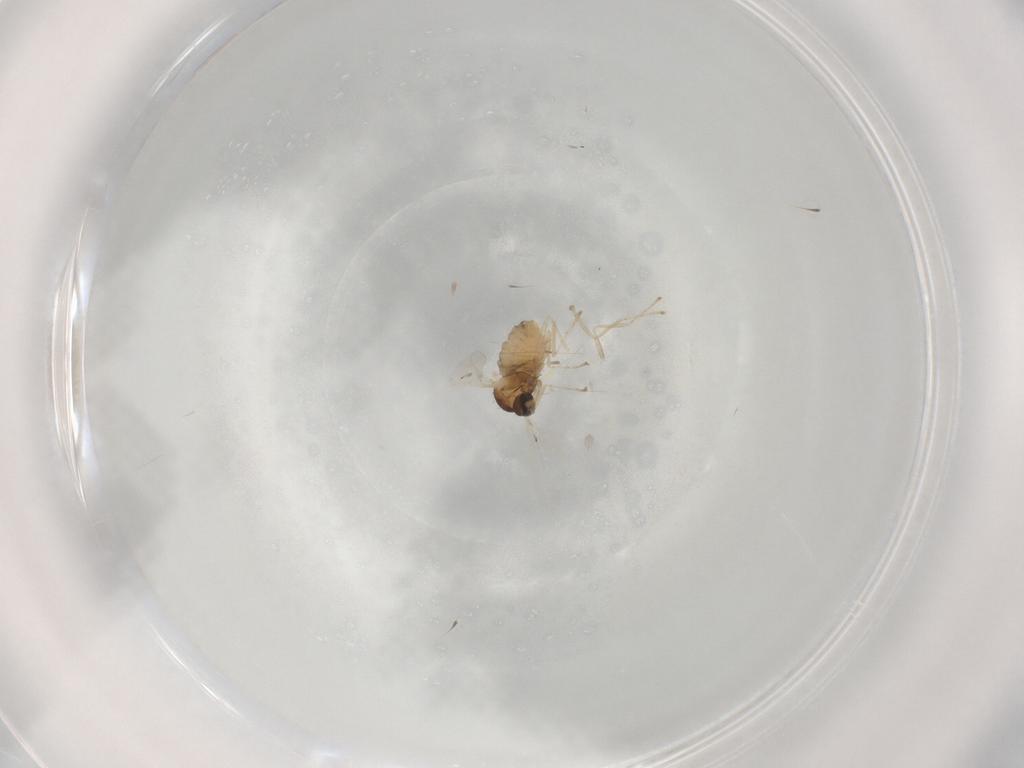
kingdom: Animalia
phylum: Arthropoda
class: Insecta
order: Diptera
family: Cecidomyiidae
